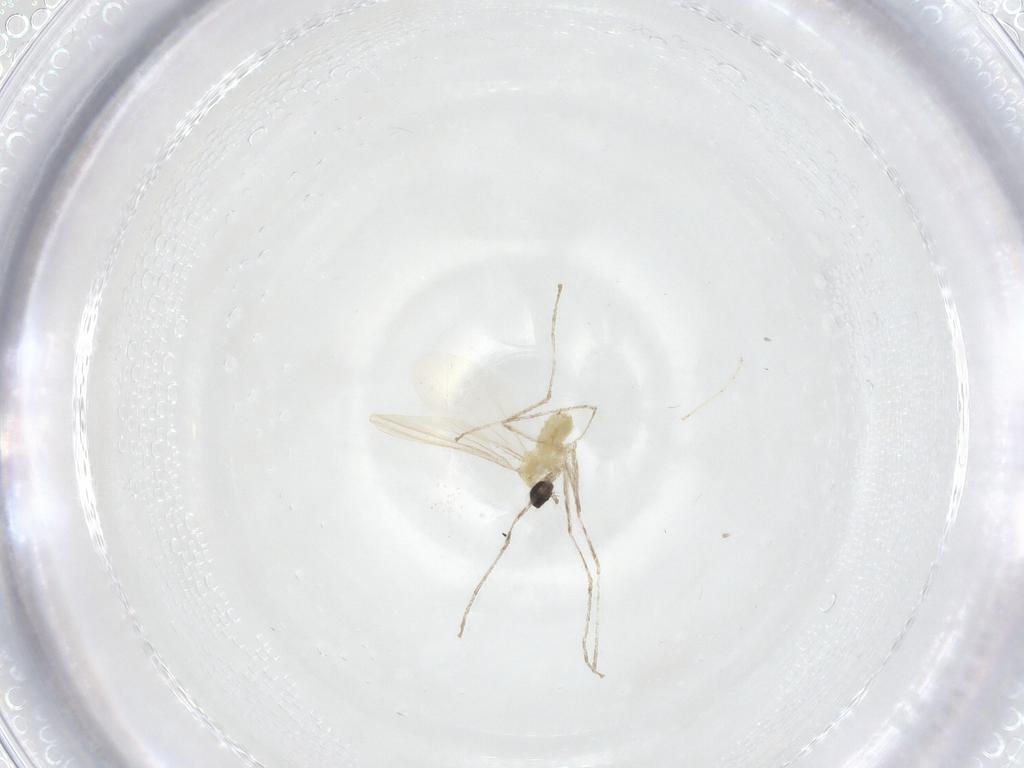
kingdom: Animalia
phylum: Arthropoda
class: Insecta
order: Diptera
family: Cecidomyiidae
